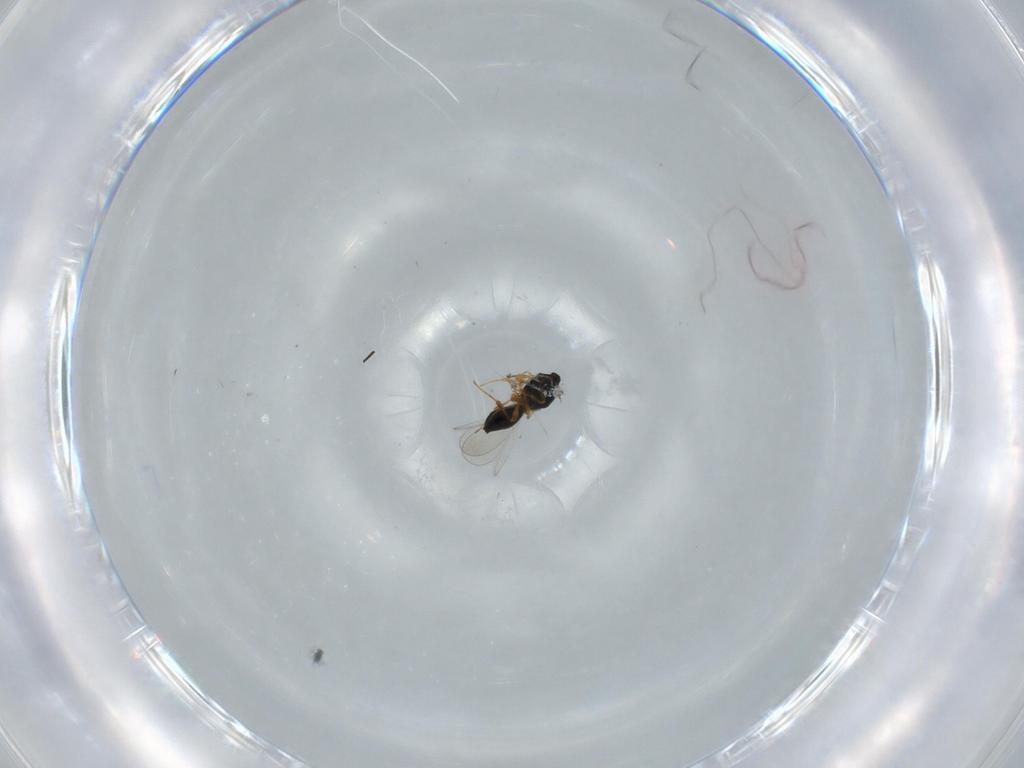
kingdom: Animalia
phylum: Arthropoda
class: Insecta
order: Hymenoptera
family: Platygastridae
